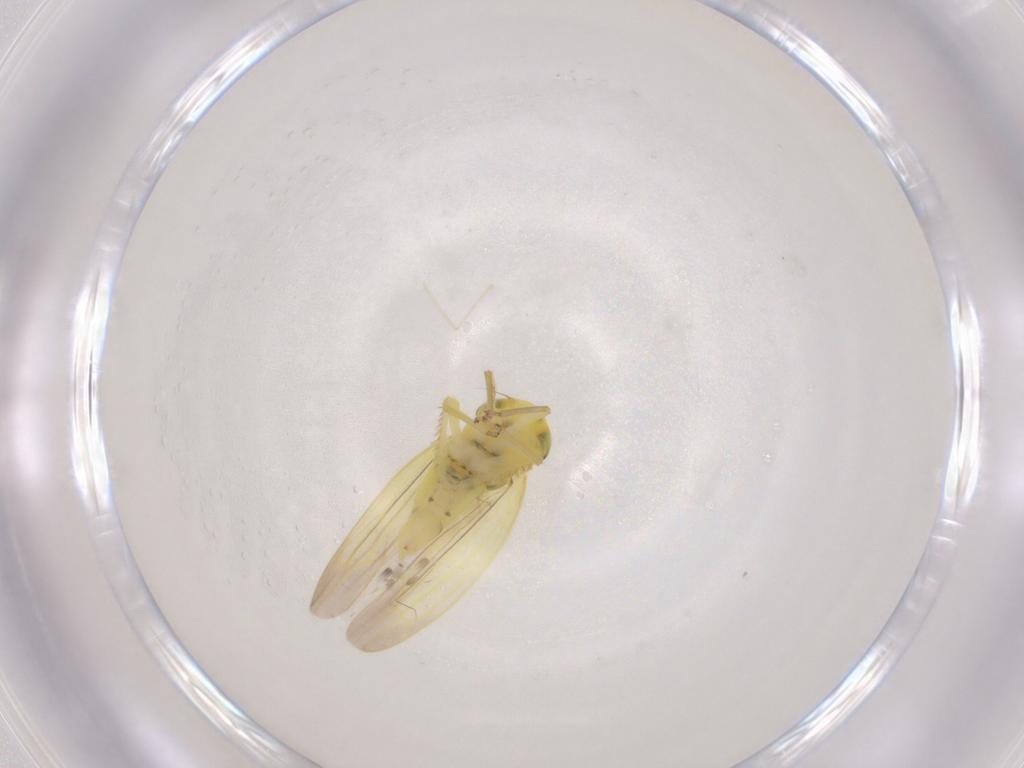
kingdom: Animalia
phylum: Arthropoda
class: Insecta
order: Hemiptera
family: Cicadellidae
